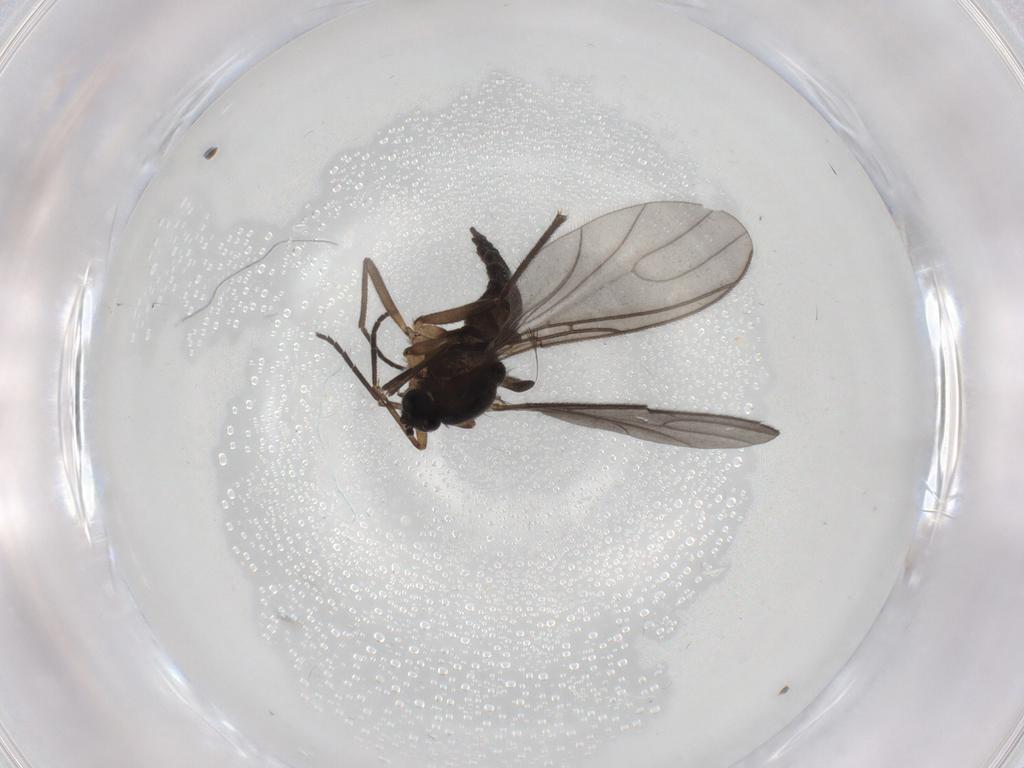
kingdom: Animalia
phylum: Arthropoda
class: Insecta
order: Diptera
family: Sciaridae
